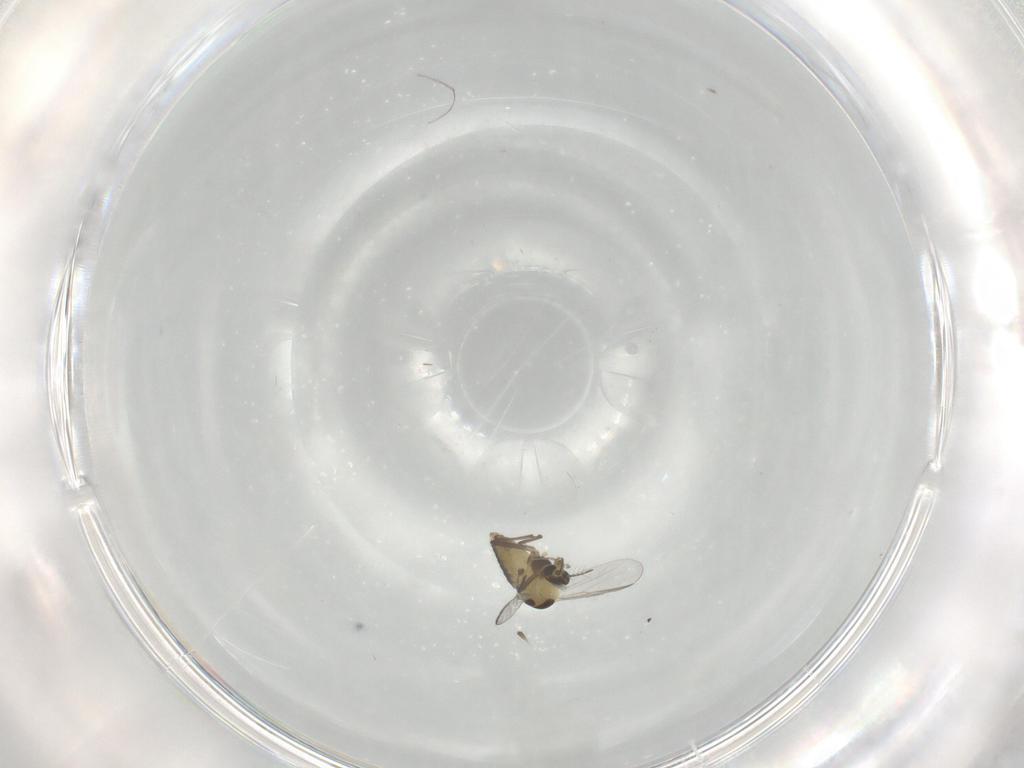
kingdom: Animalia
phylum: Arthropoda
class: Insecta
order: Diptera
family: Chironomidae
